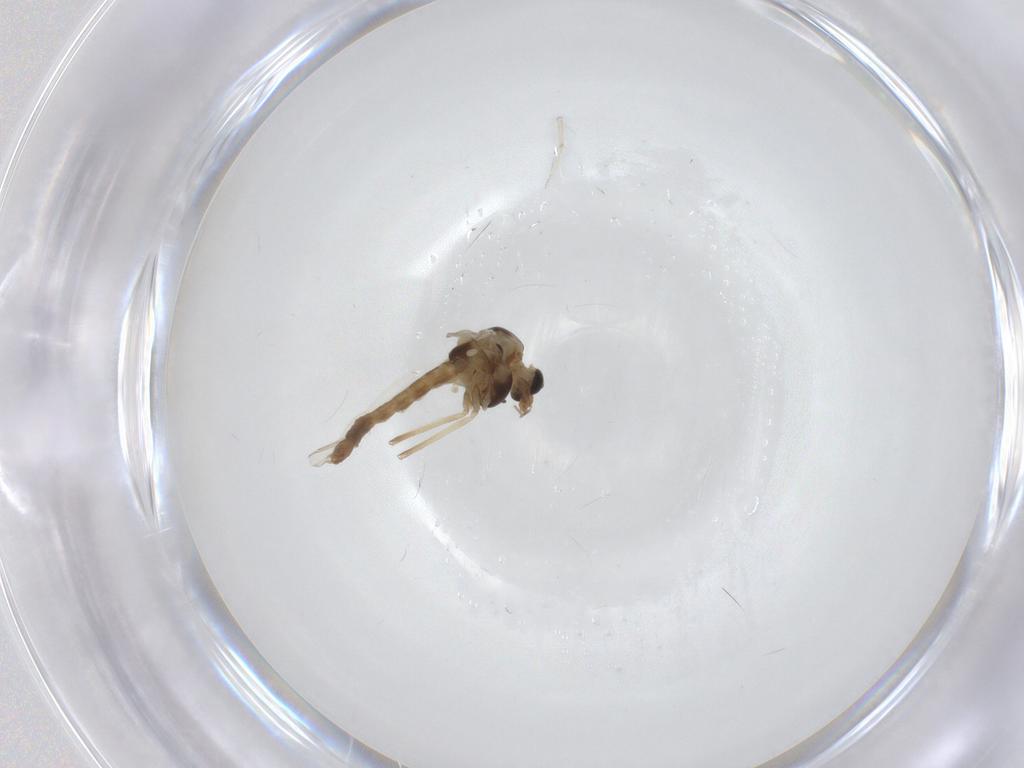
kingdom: Animalia
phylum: Arthropoda
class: Insecta
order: Diptera
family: Chironomidae
